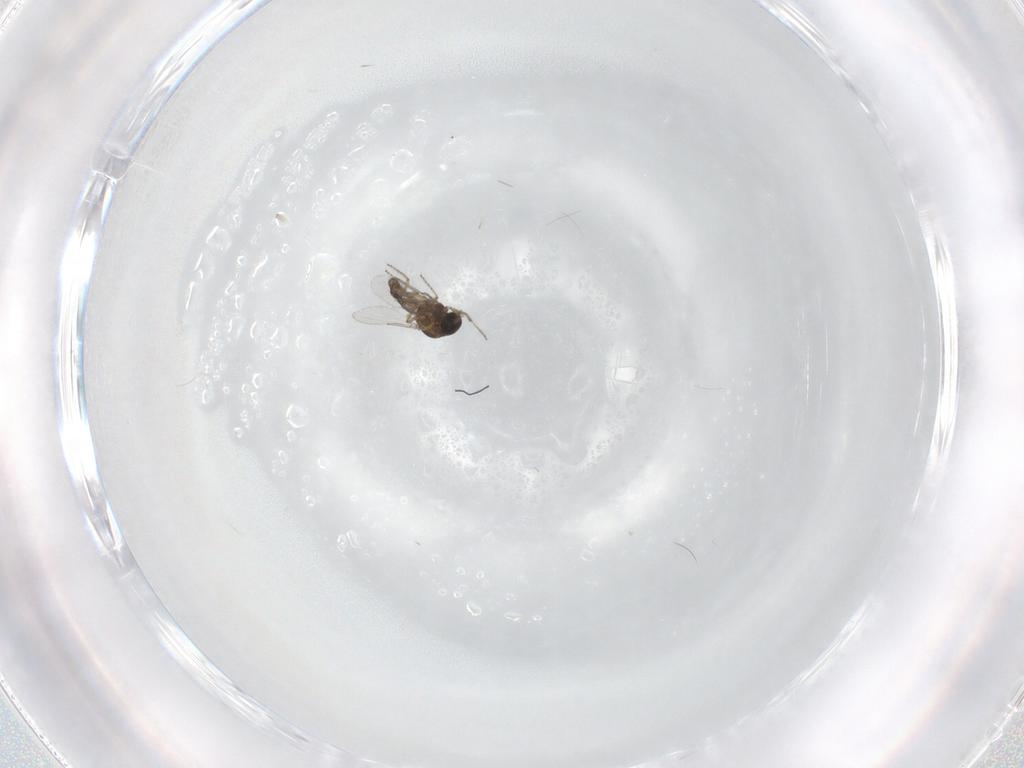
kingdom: Animalia
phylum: Arthropoda
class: Insecta
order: Diptera
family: Ceratopogonidae
